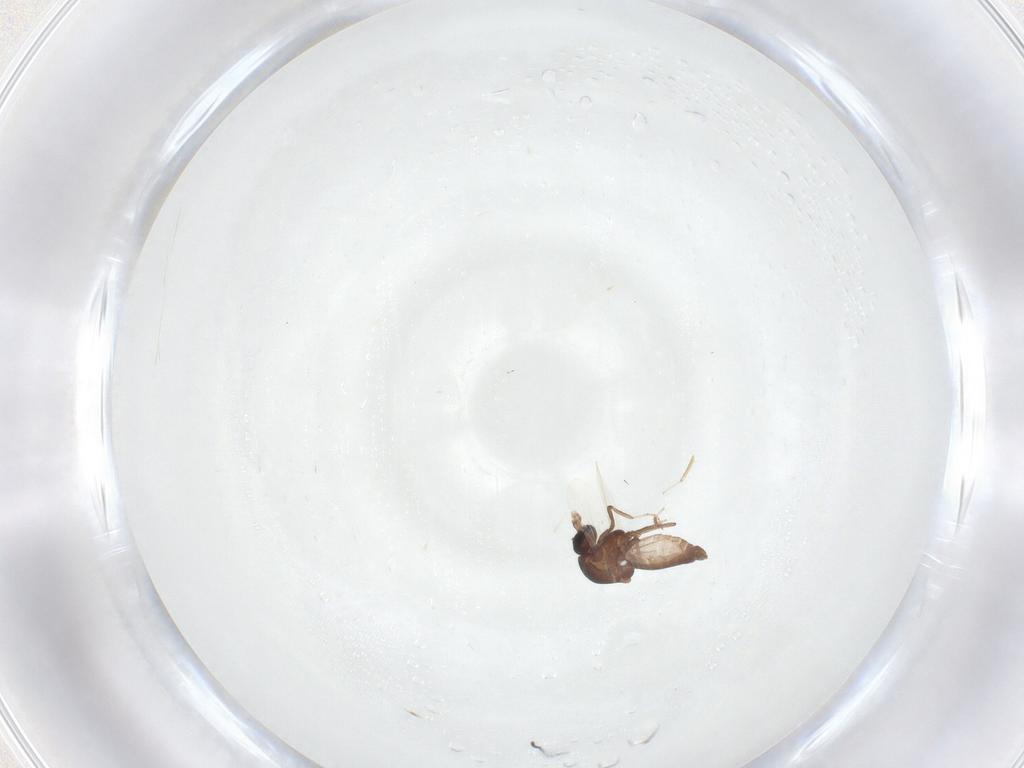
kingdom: Animalia
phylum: Arthropoda
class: Insecta
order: Diptera
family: Ceratopogonidae
